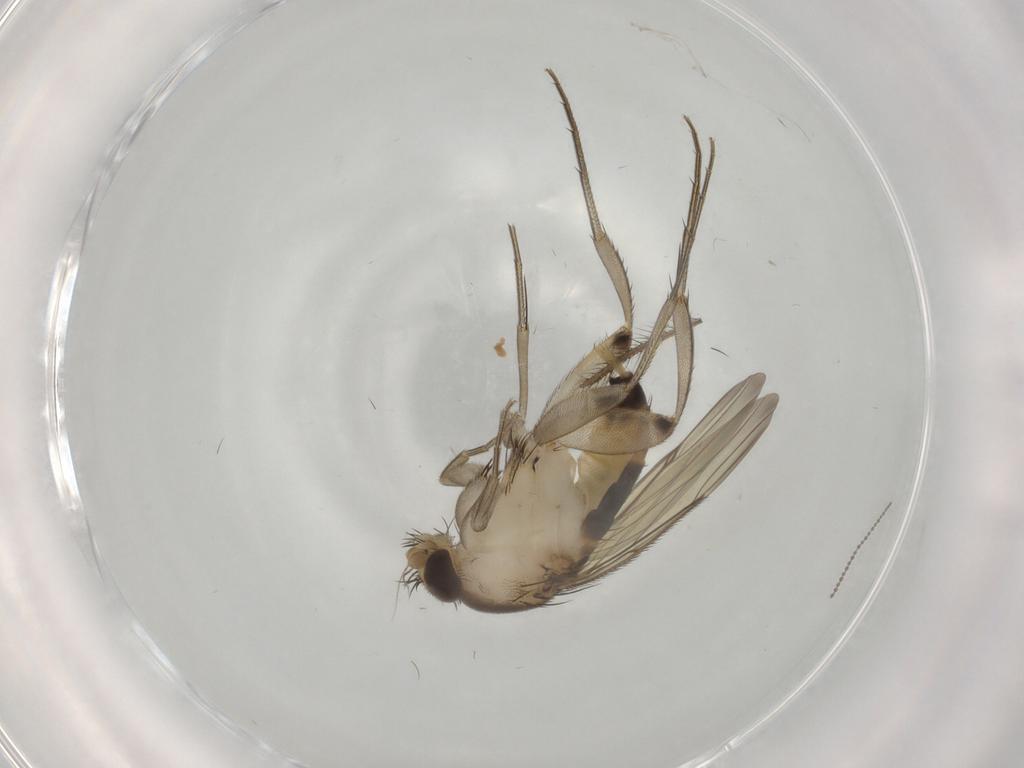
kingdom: Animalia
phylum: Arthropoda
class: Insecta
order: Diptera
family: Phoridae
